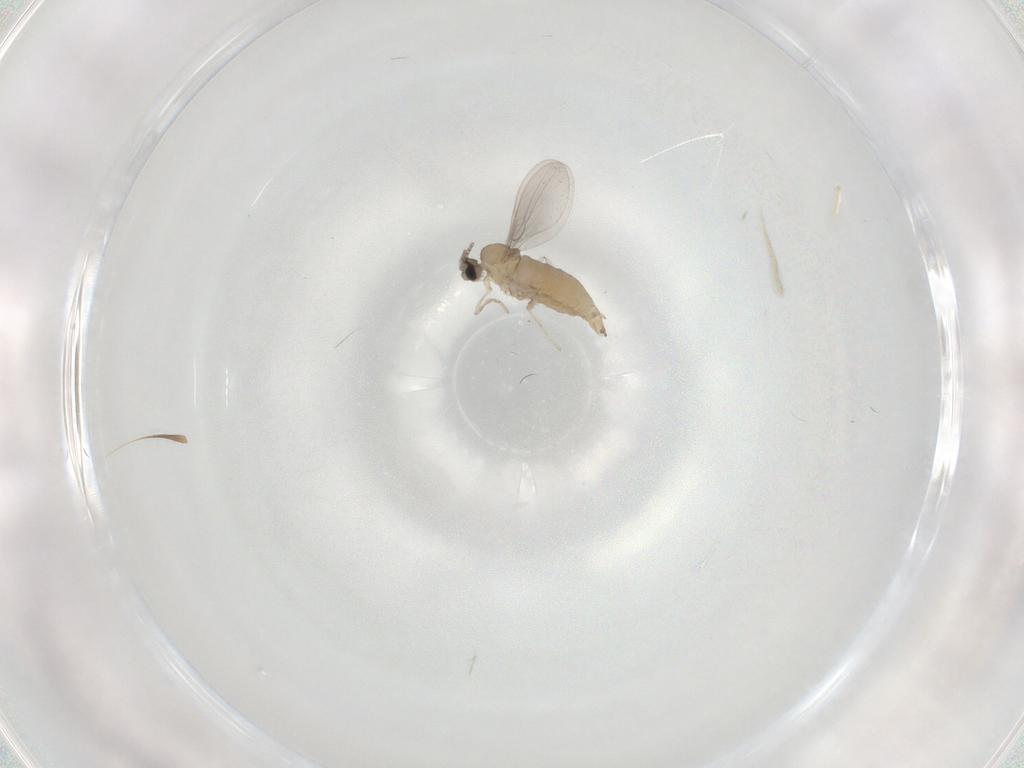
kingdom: Animalia
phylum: Arthropoda
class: Insecta
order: Diptera
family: Cecidomyiidae
